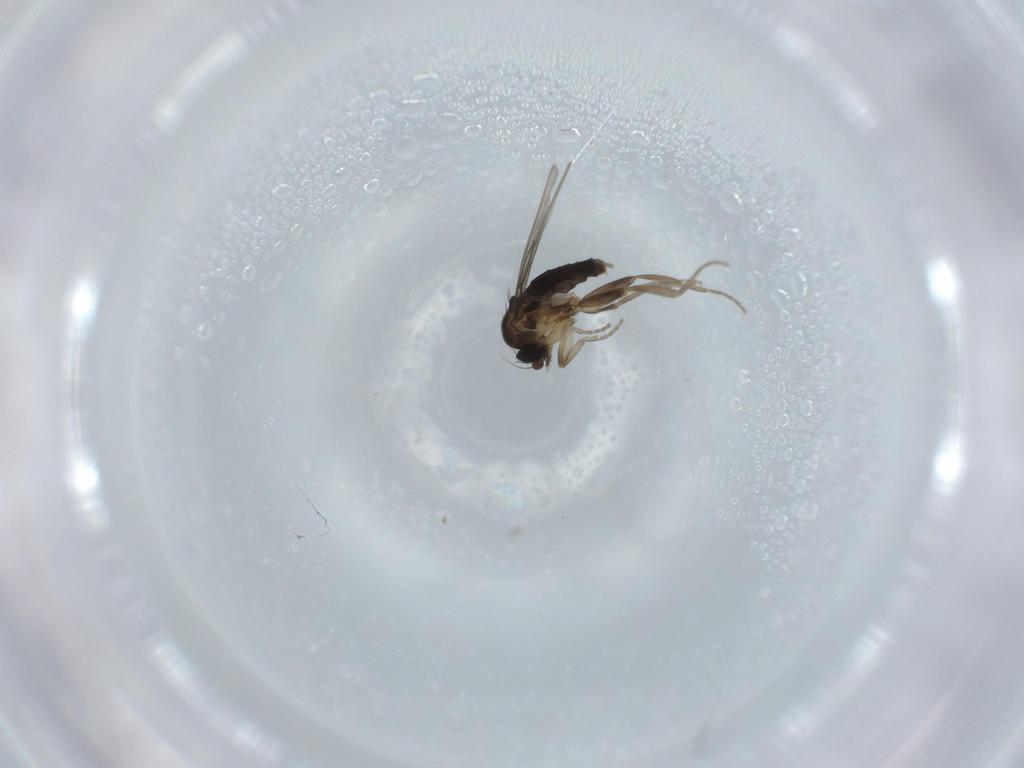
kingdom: Animalia
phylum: Arthropoda
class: Insecta
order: Diptera
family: Phoridae
